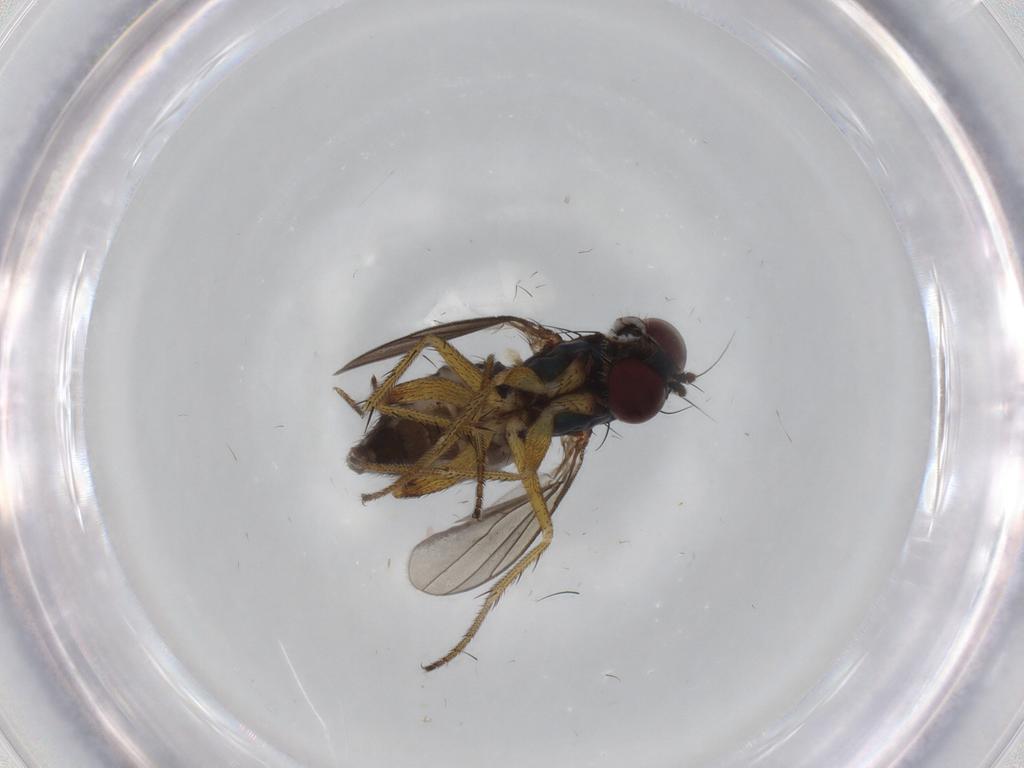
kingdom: Animalia
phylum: Arthropoda
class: Insecta
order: Diptera
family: Dolichopodidae
